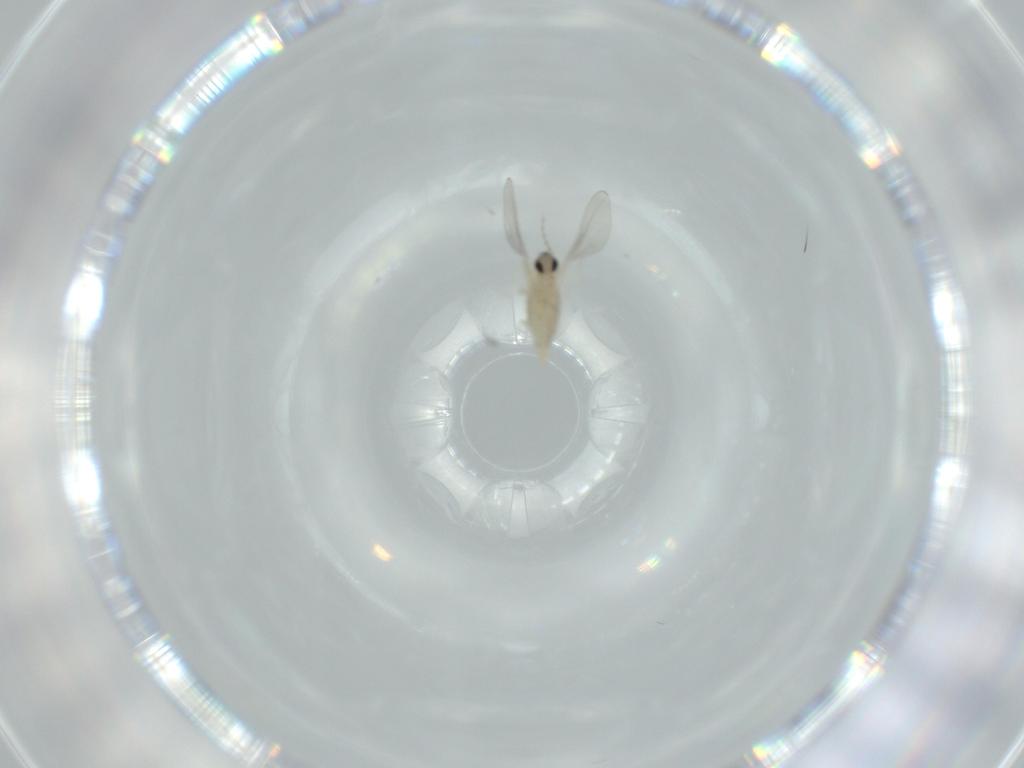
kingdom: Animalia
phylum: Arthropoda
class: Insecta
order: Diptera
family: Cecidomyiidae
